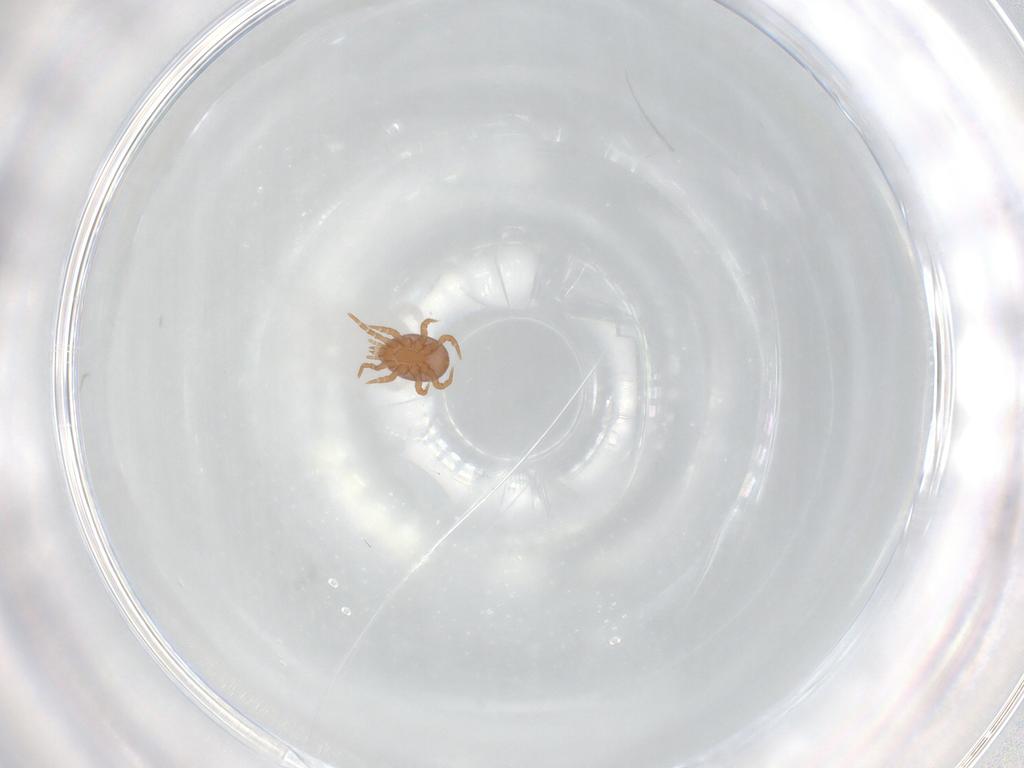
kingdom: Animalia
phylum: Arthropoda
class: Arachnida
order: Mesostigmata
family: Eviphididae
